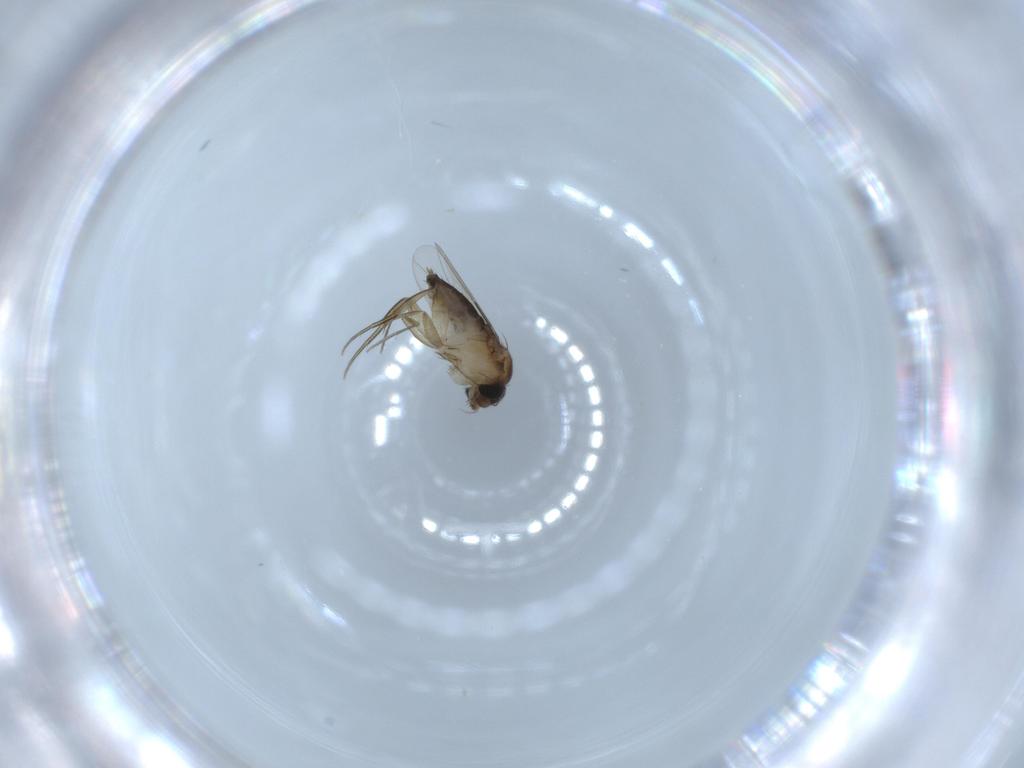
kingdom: Animalia
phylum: Arthropoda
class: Insecta
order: Diptera
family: Phoridae
